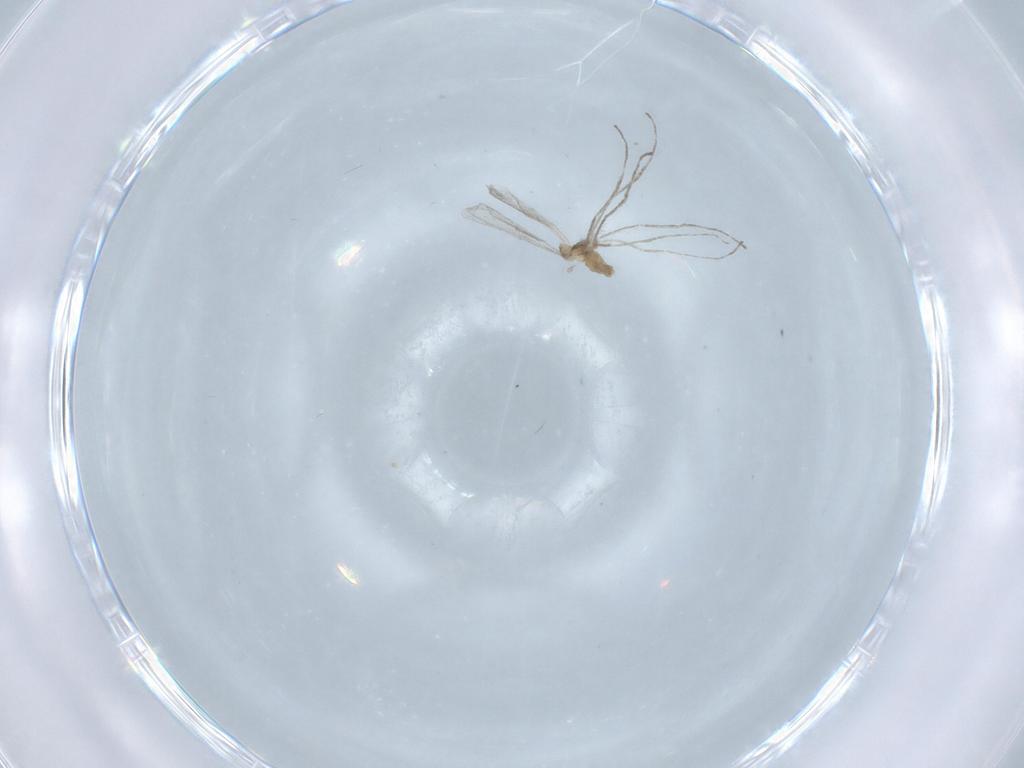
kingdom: Animalia
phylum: Arthropoda
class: Insecta
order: Diptera
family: Cecidomyiidae
